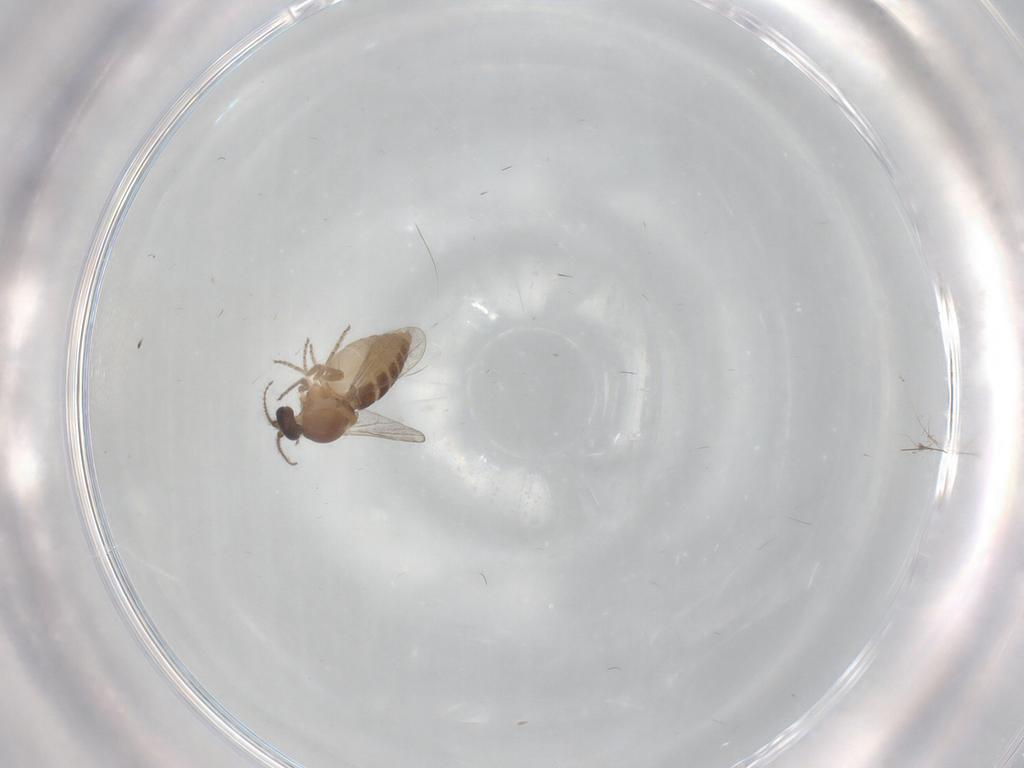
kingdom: Animalia
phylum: Arthropoda
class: Insecta
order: Diptera
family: Ceratopogonidae
